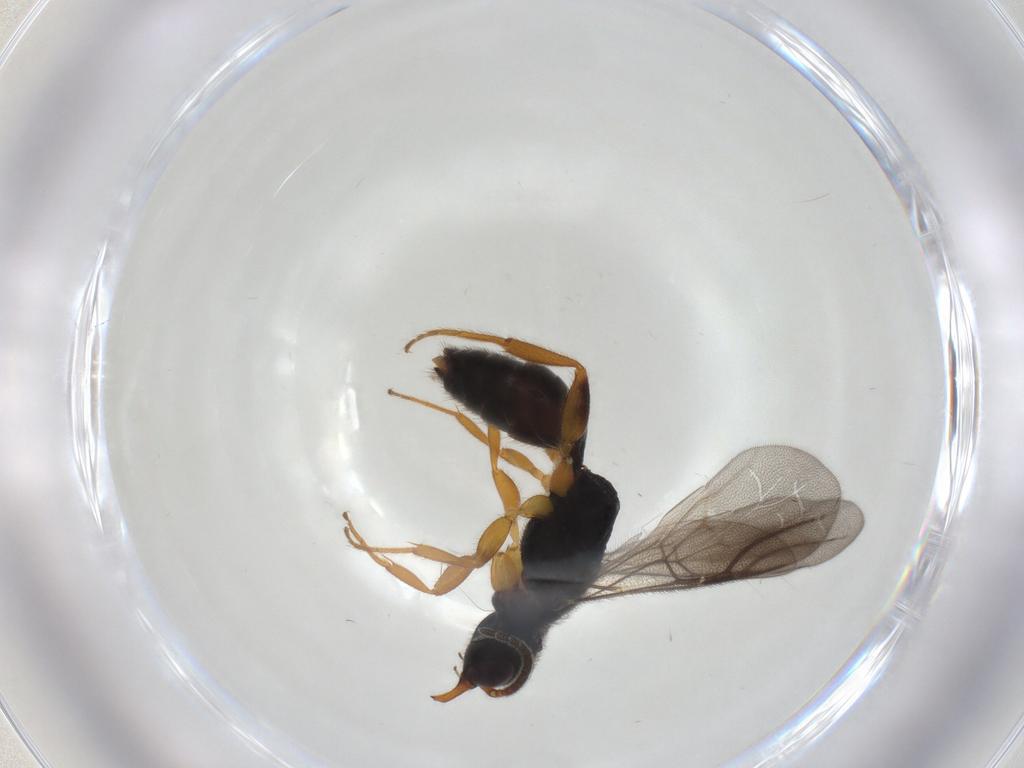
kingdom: Animalia
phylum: Arthropoda
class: Insecta
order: Hymenoptera
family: Bethylidae
